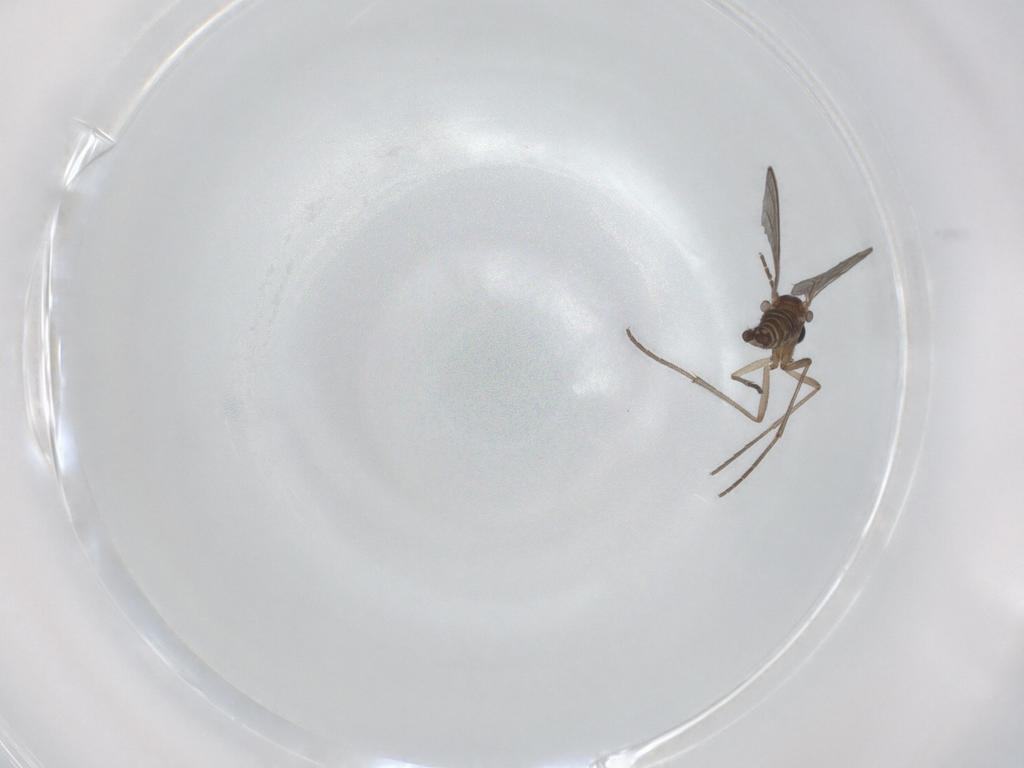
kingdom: Animalia
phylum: Arthropoda
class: Insecta
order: Diptera
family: Sciaridae
